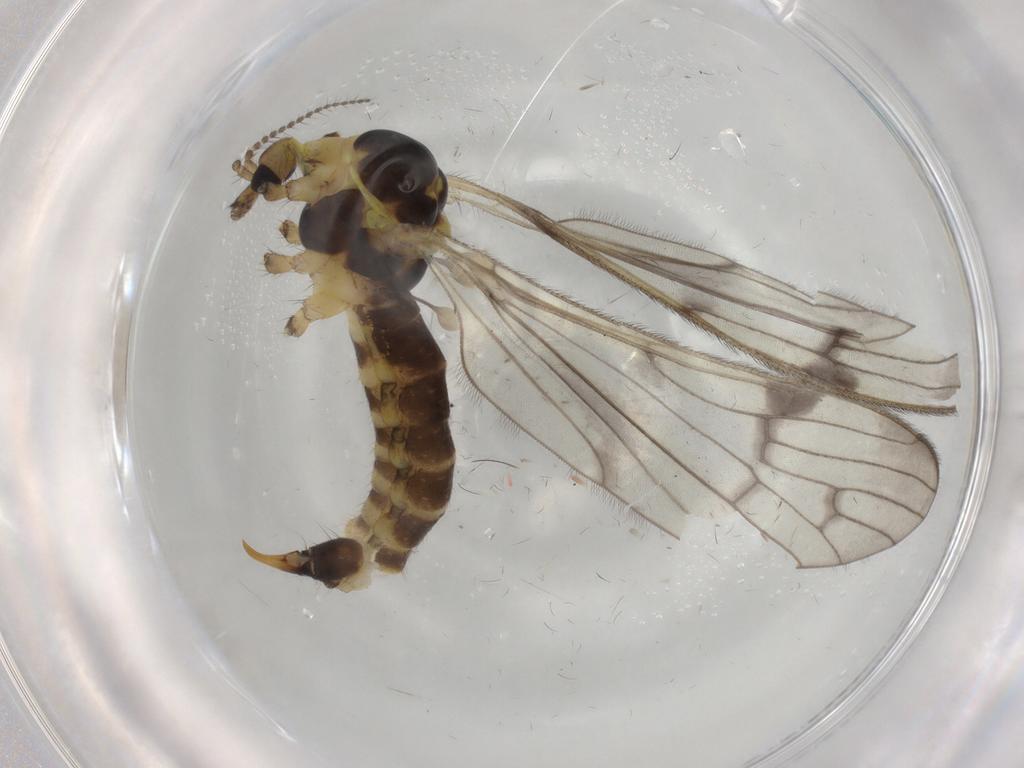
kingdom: Animalia
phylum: Arthropoda
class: Insecta
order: Diptera
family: Limoniidae
